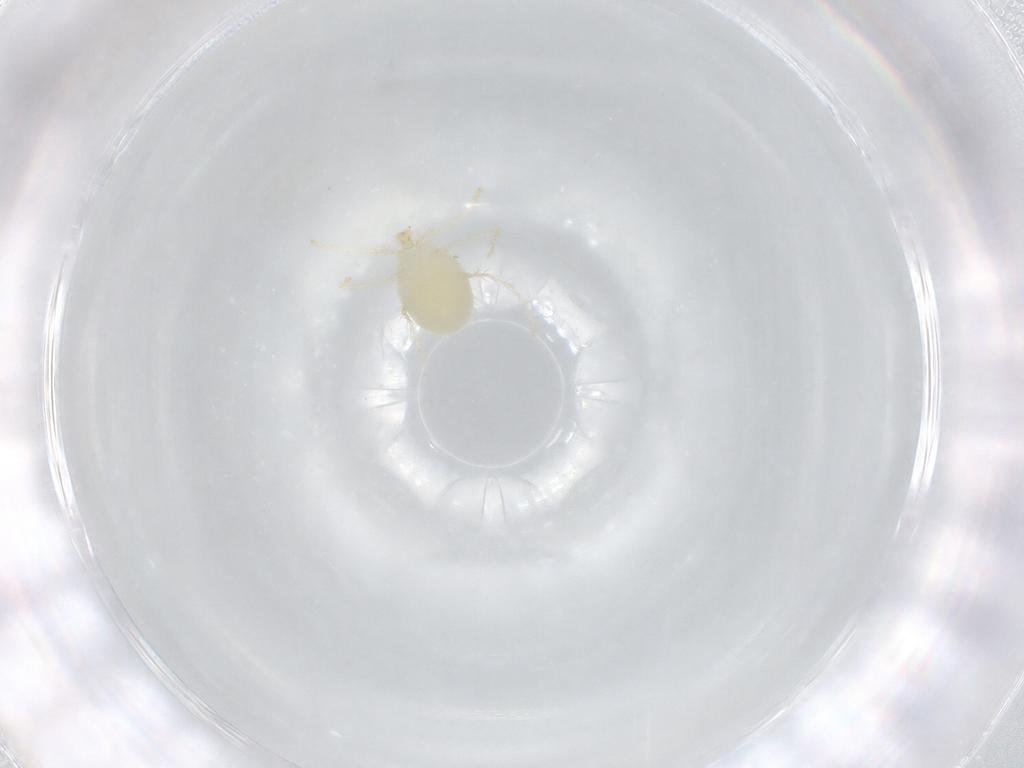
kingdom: Animalia
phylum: Arthropoda
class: Arachnida
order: Trombidiformes
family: Erythraeidae
